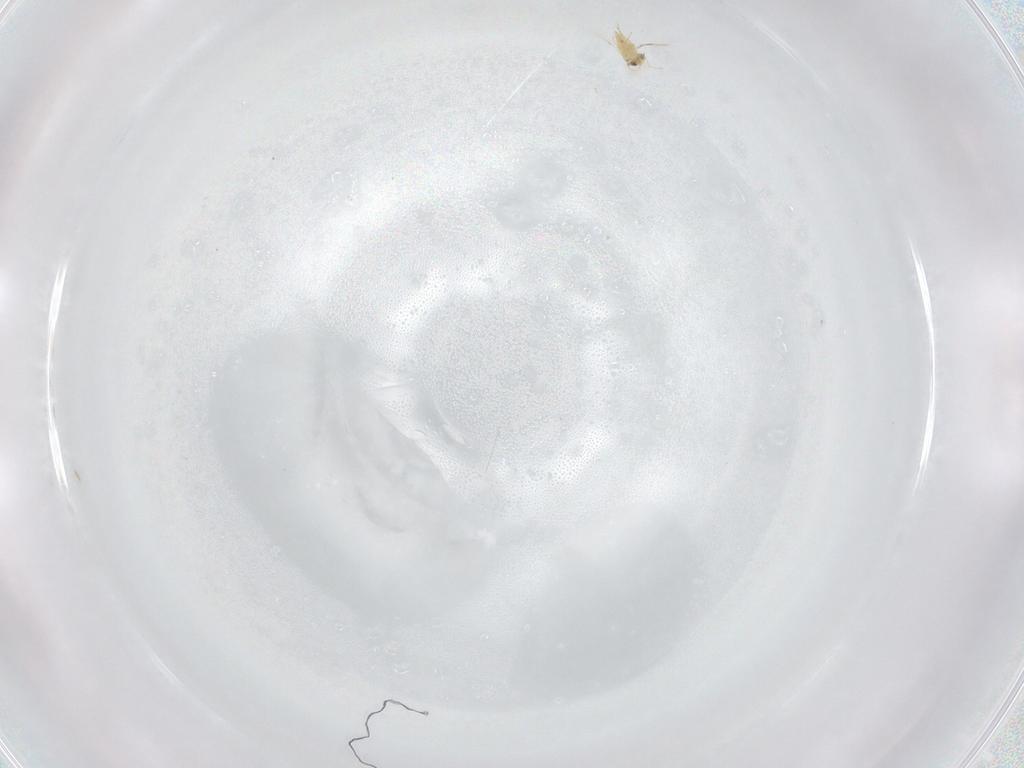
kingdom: Animalia
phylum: Arthropoda
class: Insecta
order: Hymenoptera
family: Trichogrammatidae
